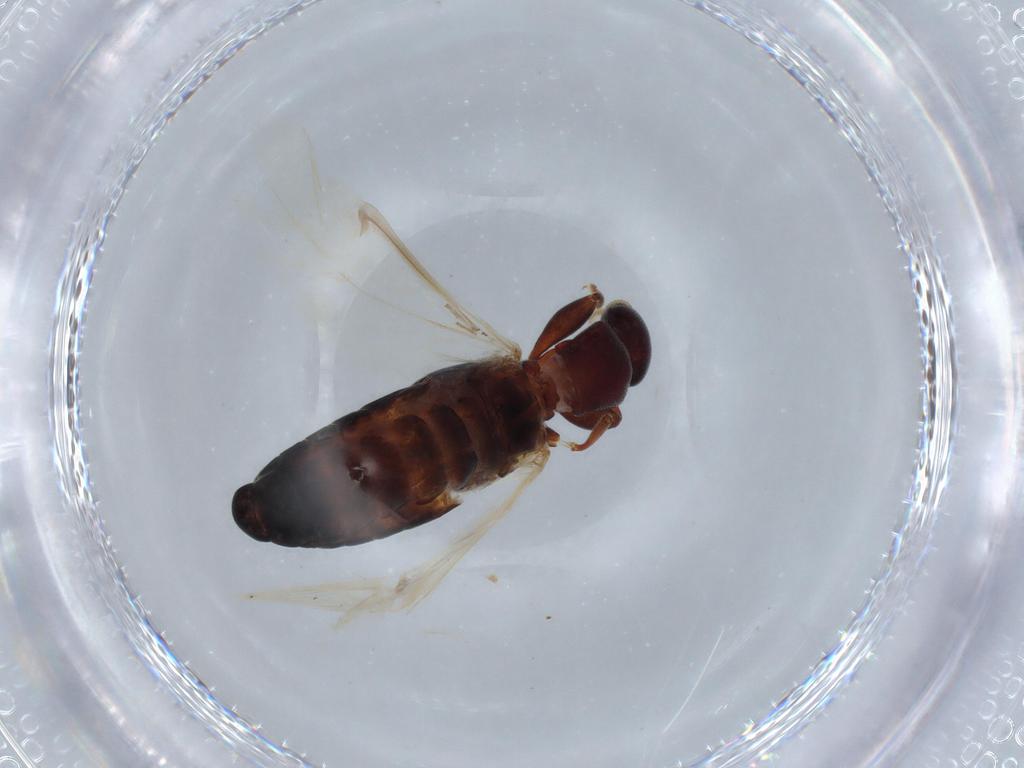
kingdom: Animalia
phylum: Arthropoda
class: Insecta
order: Coleoptera
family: Latridiidae
